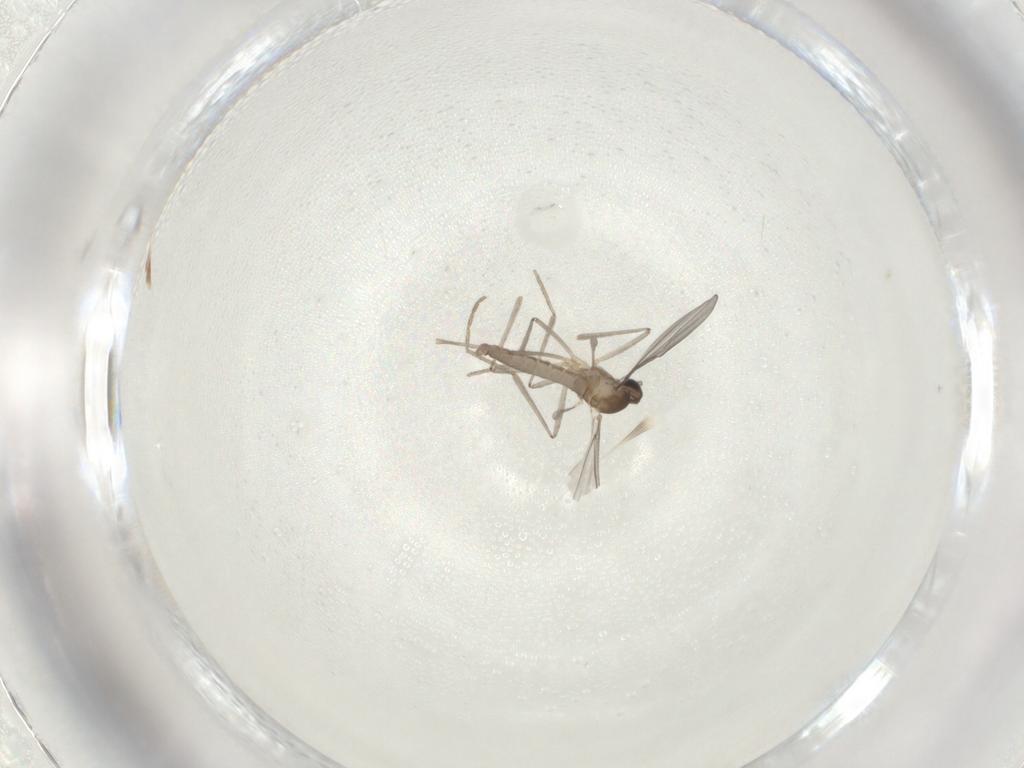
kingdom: Animalia
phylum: Arthropoda
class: Insecta
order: Diptera
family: Cecidomyiidae
